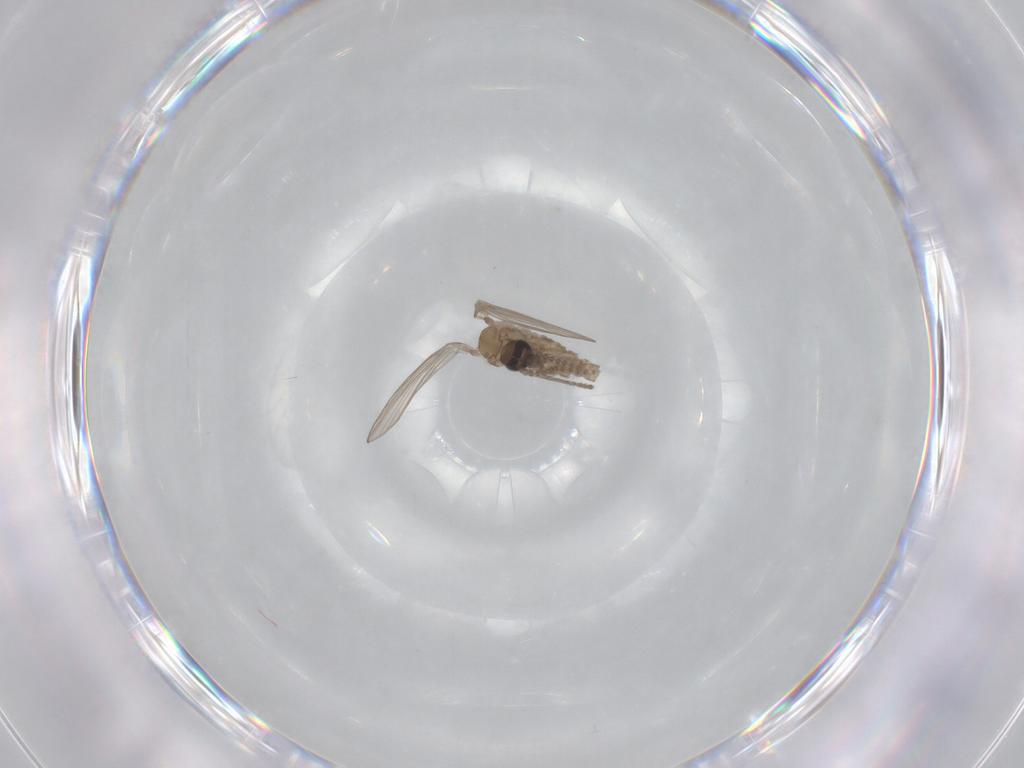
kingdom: Animalia
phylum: Arthropoda
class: Insecta
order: Diptera
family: Psychodidae
